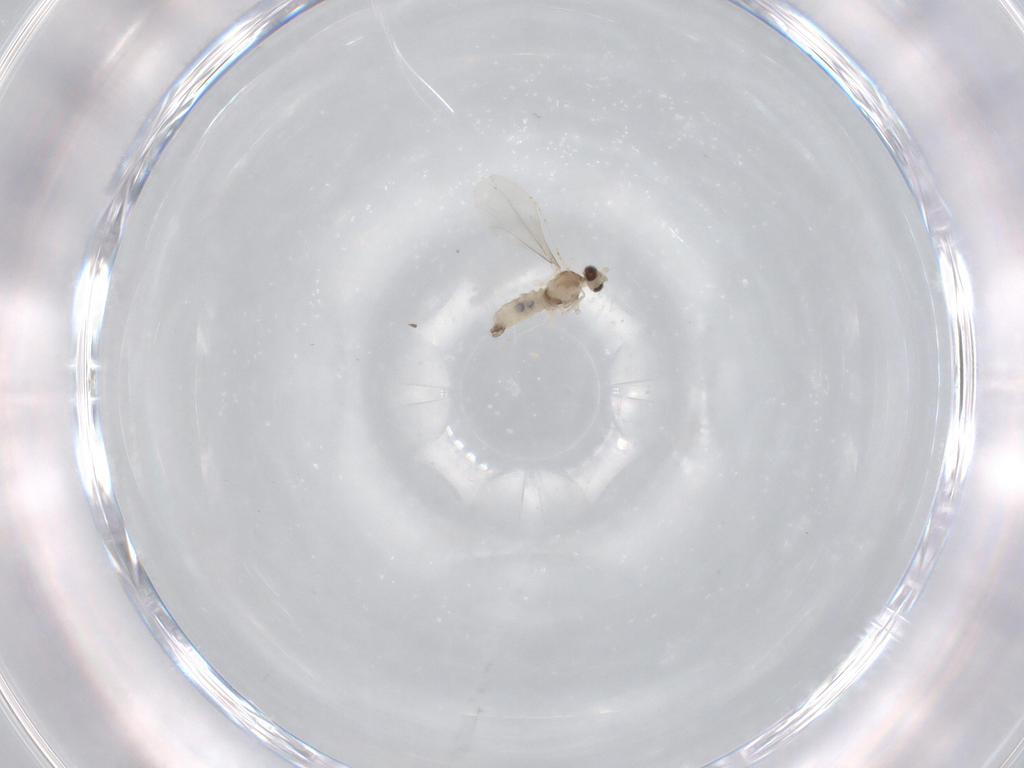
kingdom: Animalia
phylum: Arthropoda
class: Insecta
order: Diptera
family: Cecidomyiidae
